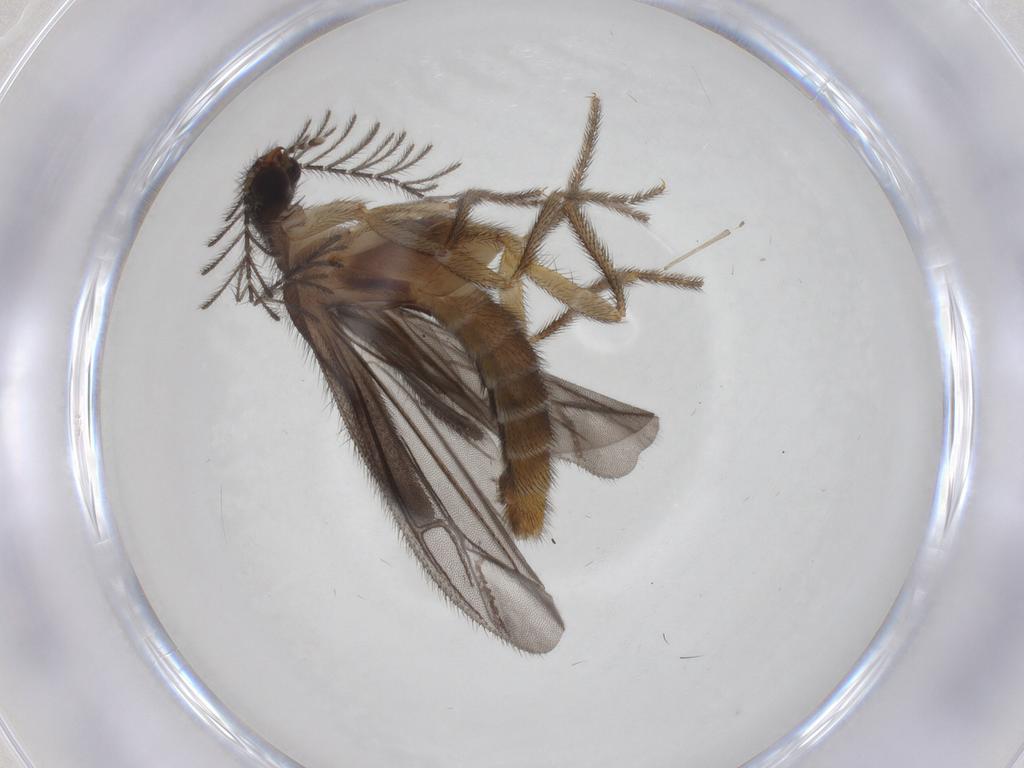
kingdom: Animalia
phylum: Arthropoda
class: Insecta
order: Coleoptera
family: Phengodidae
